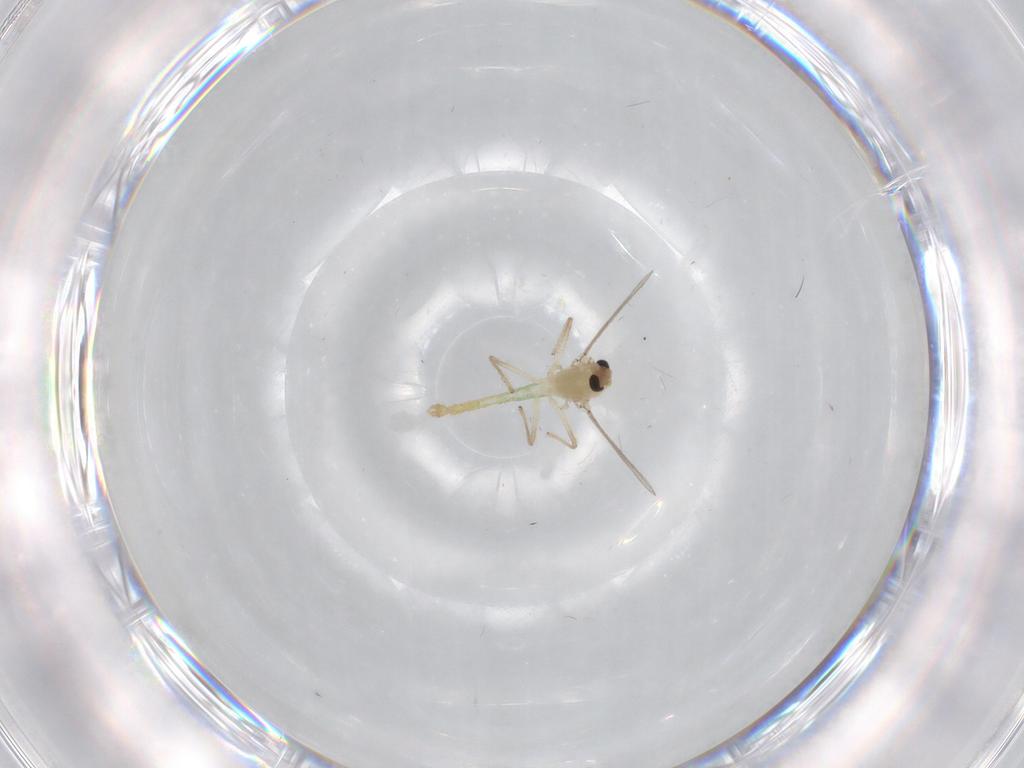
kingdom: Animalia
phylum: Arthropoda
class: Insecta
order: Diptera
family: Chironomidae
